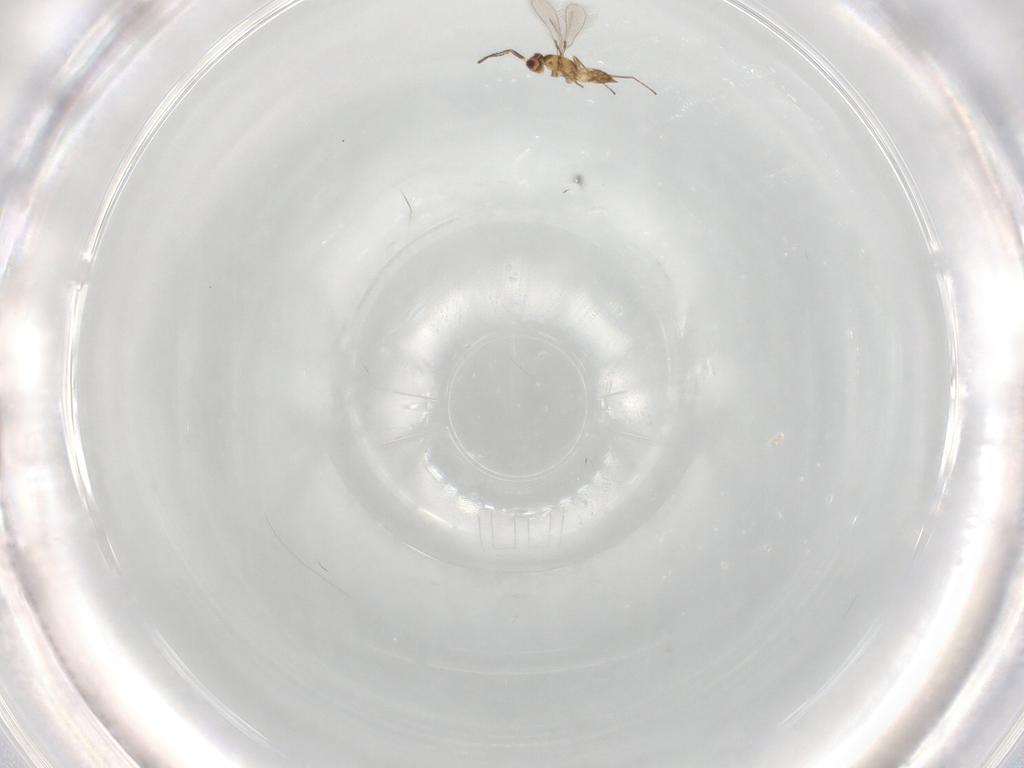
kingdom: Animalia
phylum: Arthropoda
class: Insecta
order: Hymenoptera
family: Mymaridae
